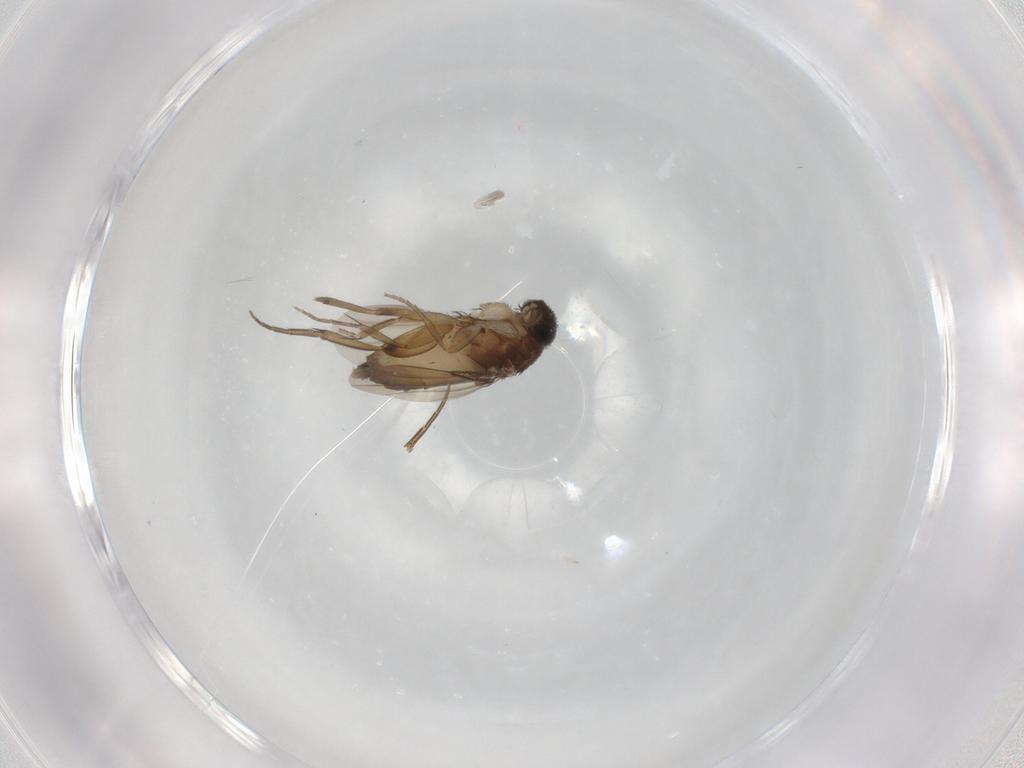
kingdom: Animalia
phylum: Arthropoda
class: Insecta
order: Diptera
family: Phoridae
